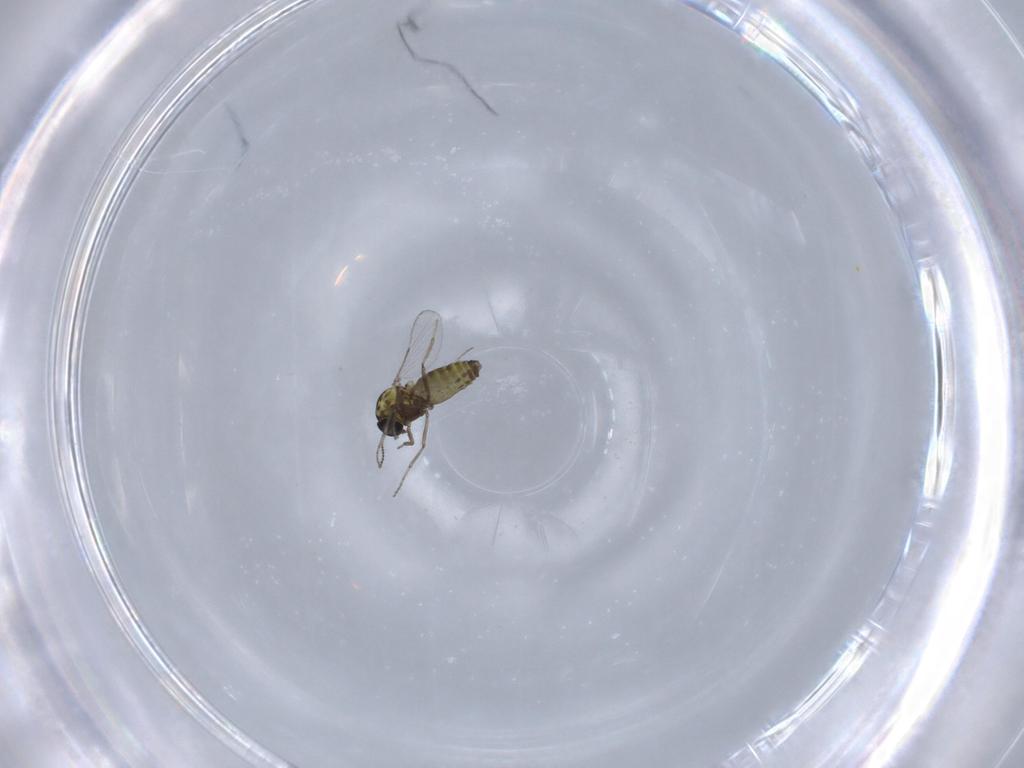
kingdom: Animalia
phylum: Arthropoda
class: Insecta
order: Diptera
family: Ceratopogonidae
